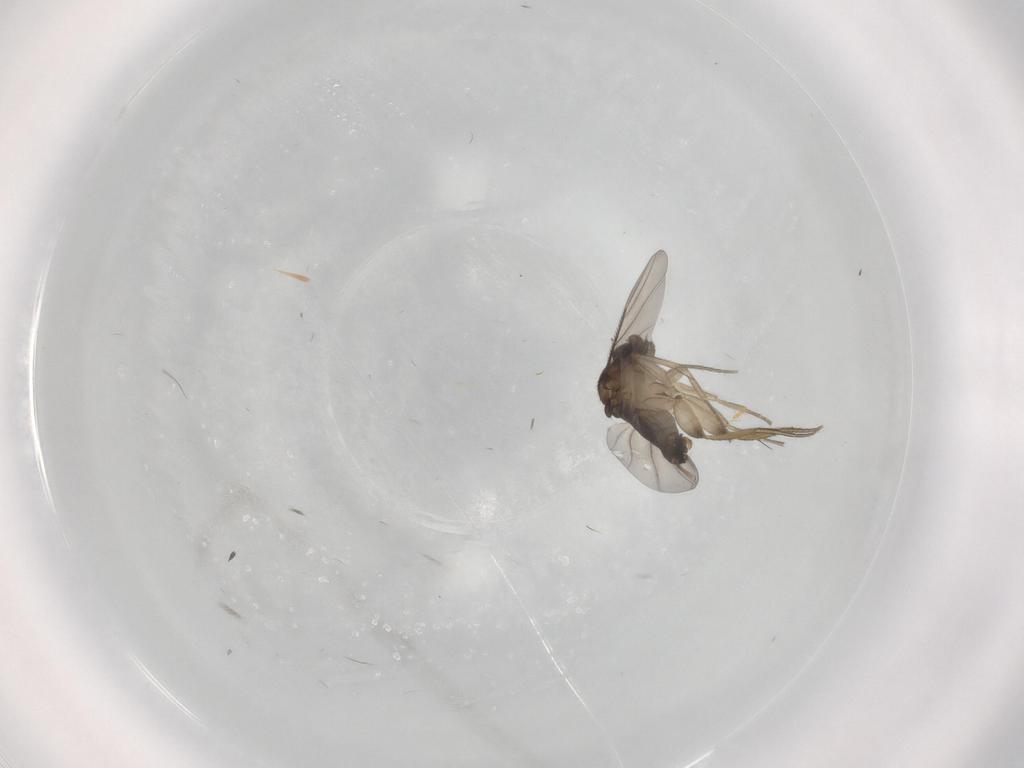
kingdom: Animalia
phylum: Arthropoda
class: Insecta
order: Diptera
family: Phoridae
